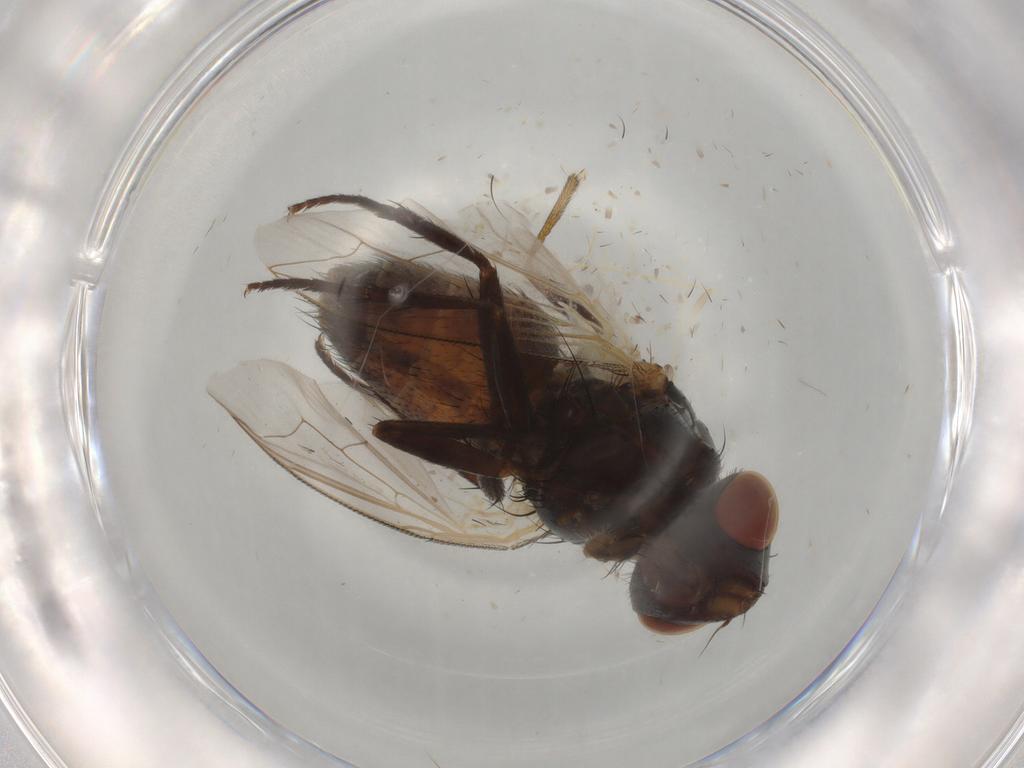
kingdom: Animalia
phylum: Arthropoda
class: Insecta
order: Diptera
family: Sarcophagidae
